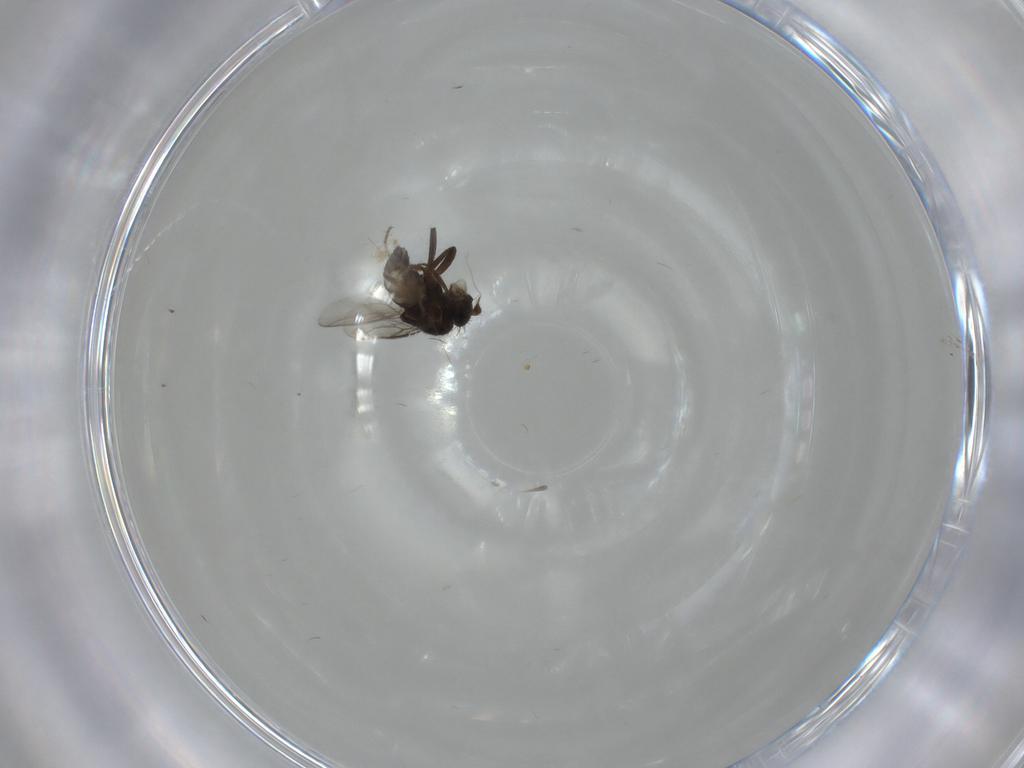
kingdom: Animalia
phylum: Arthropoda
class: Insecta
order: Diptera
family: Sphaeroceridae
